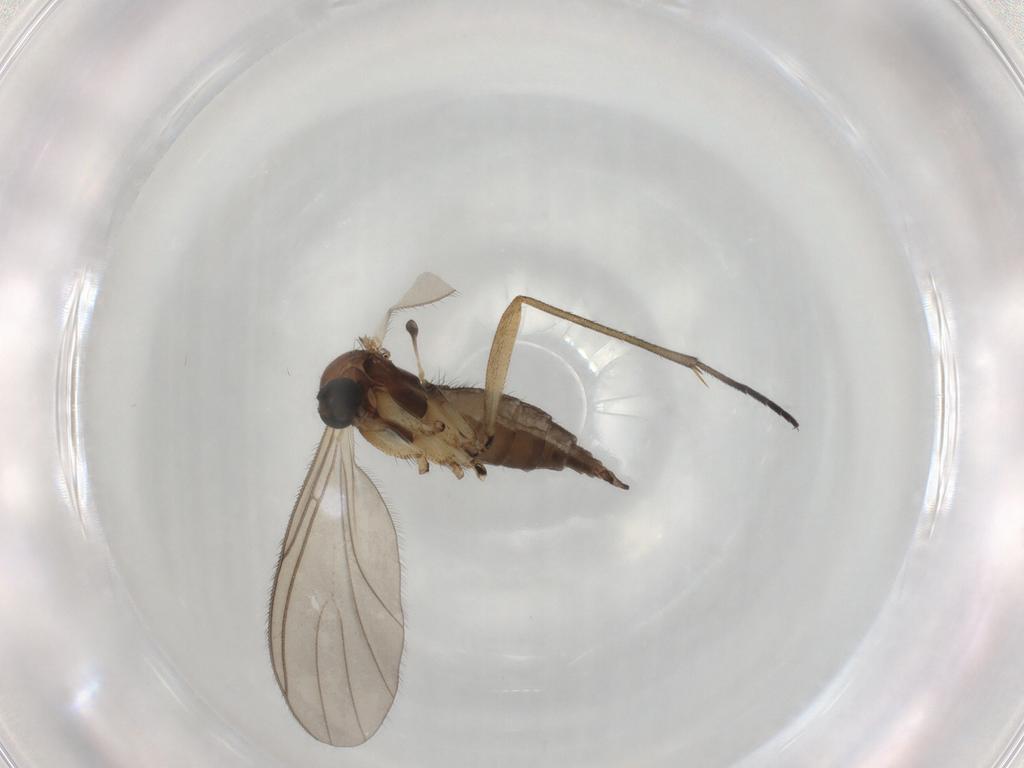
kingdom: Animalia
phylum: Arthropoda
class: Insecta
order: Diptera
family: Sciaridae
